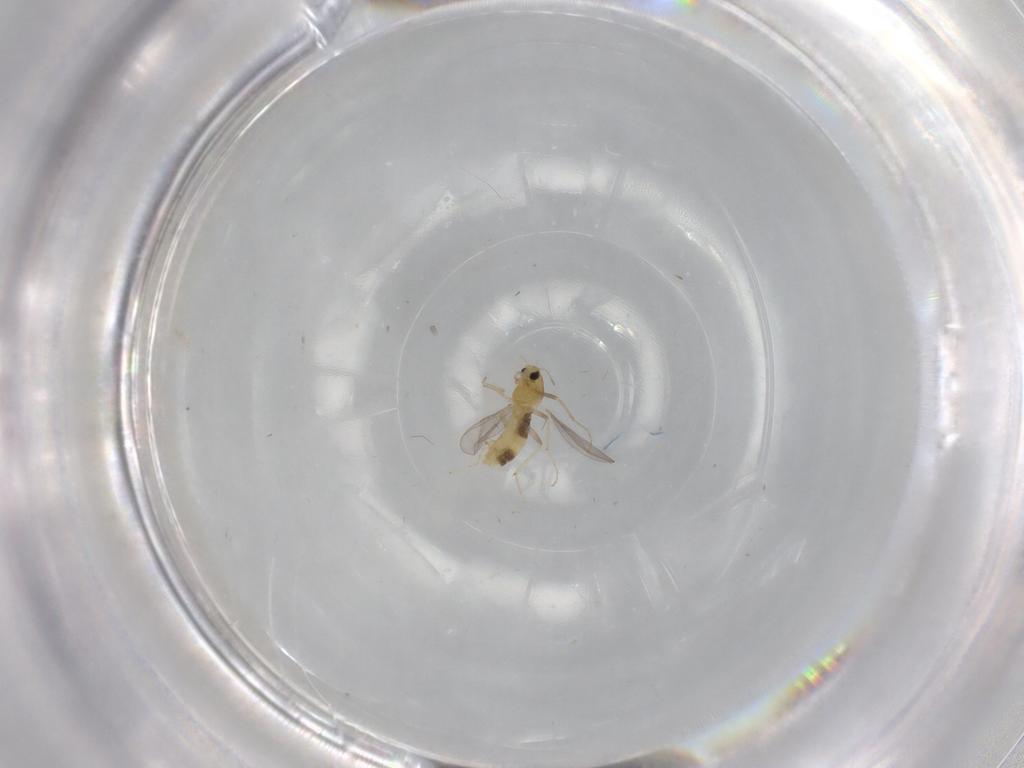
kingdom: Animalia
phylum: Arthropoda
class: Insecta
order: Diptera
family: Chironomidae
